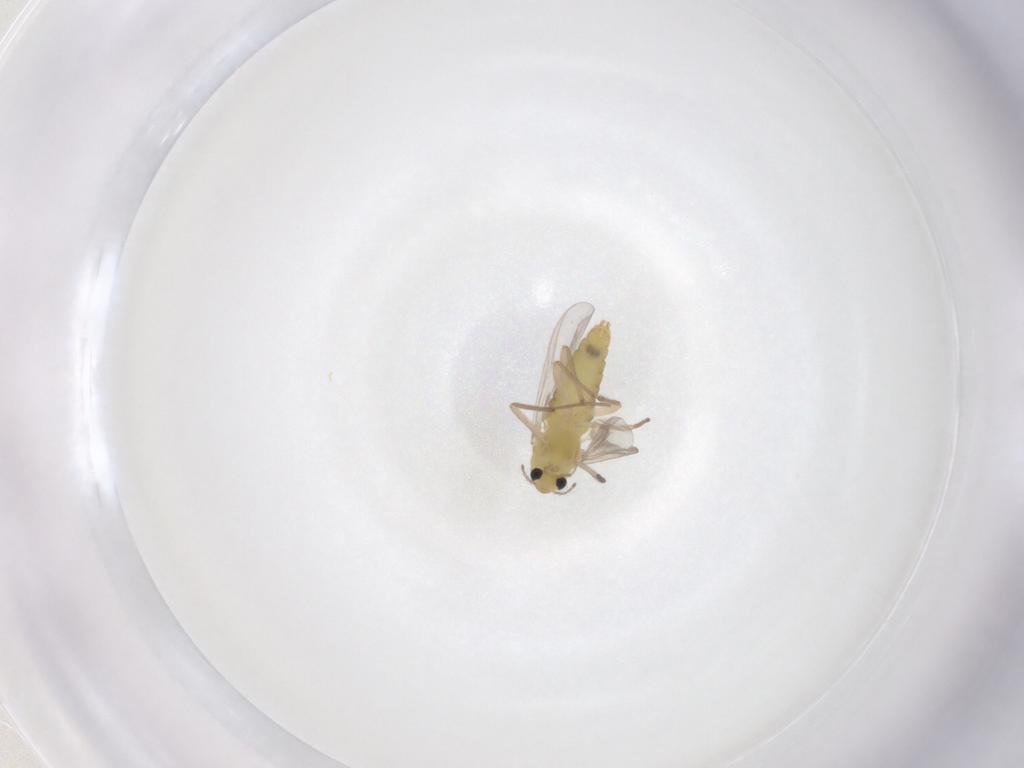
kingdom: Animalia
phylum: Arthropoda
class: Insecta
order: Diptera
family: Chironomidae
